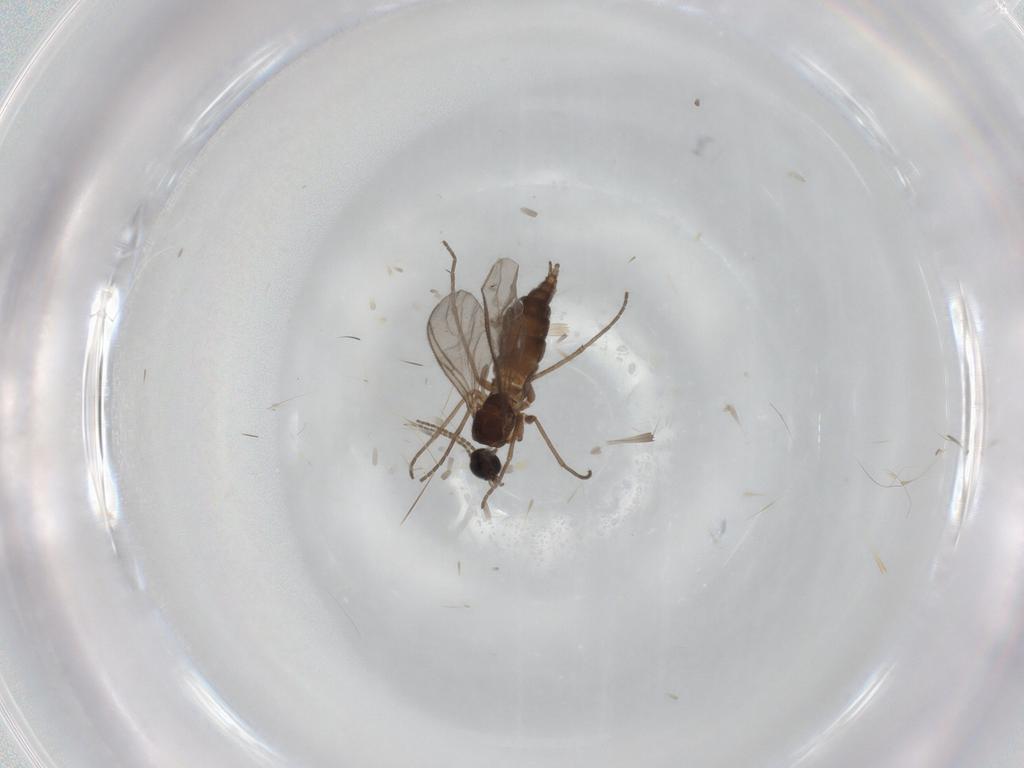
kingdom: Animalia
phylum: Arthropoda
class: Insecta
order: Diptera
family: Sciaridae
